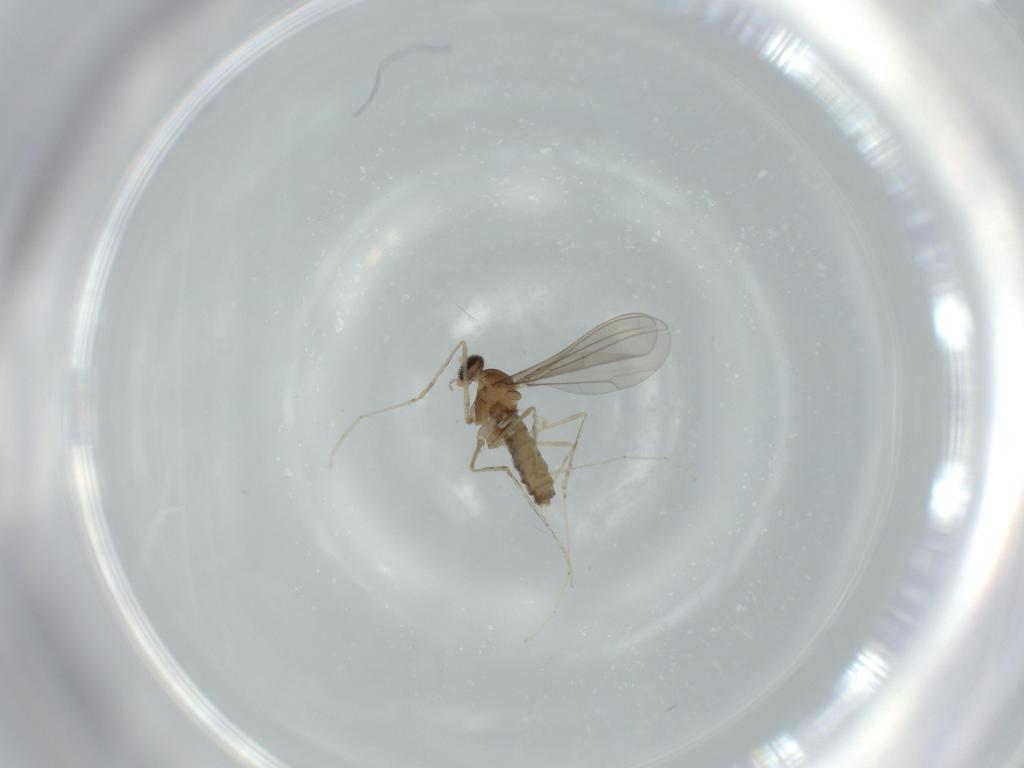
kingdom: Animalia
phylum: Arthropoda
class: Insecta
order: Diptera
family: Cecidomyiidae
